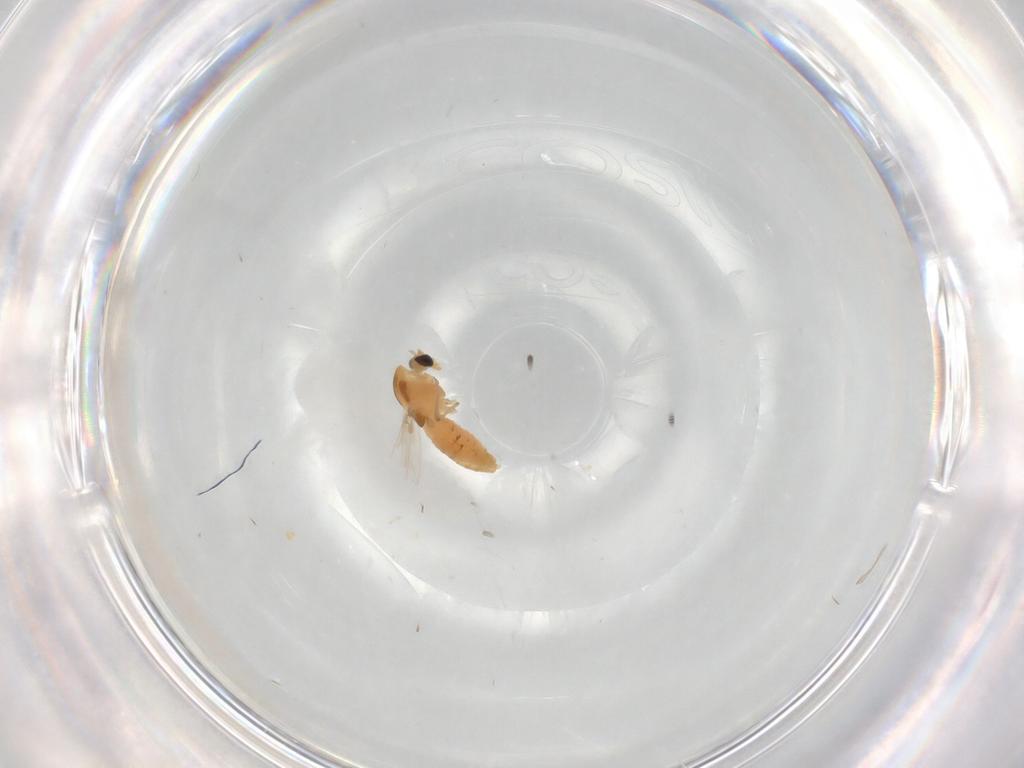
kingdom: Animalia
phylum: Arthropoda
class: Insecta
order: Diptera
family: Chironomidae
